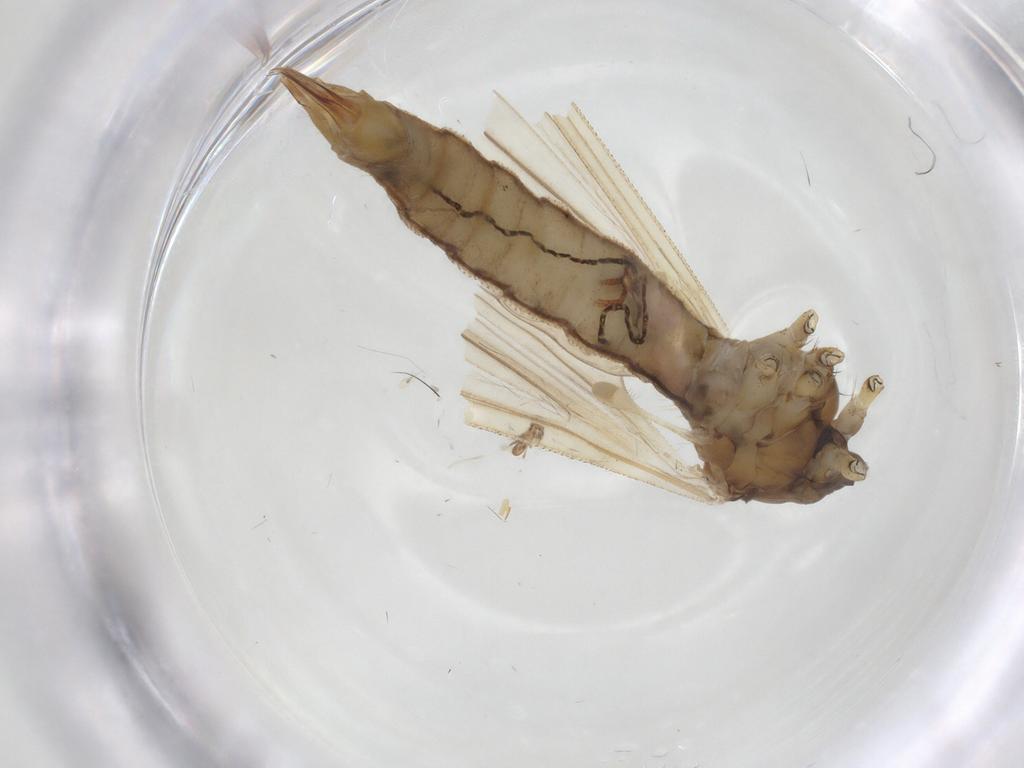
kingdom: Animalia
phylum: Arthropoda
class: Insecta
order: Diptera
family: Limoniidae
